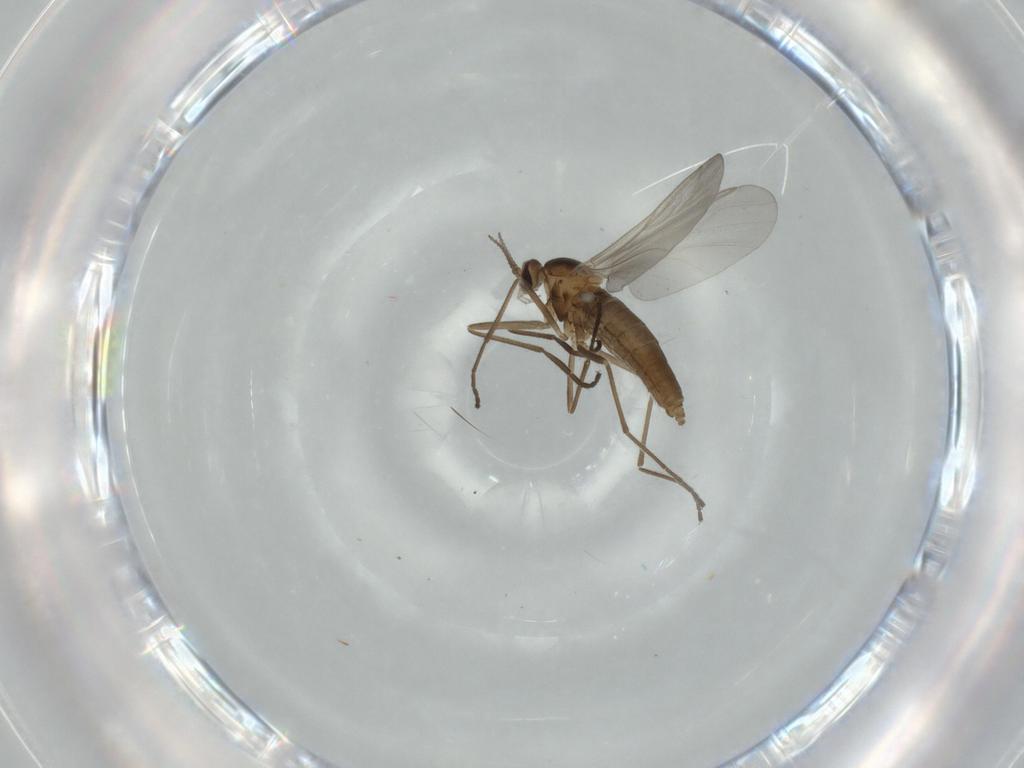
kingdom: Animalia
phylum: Arthropoda
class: Insecta
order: Diptera
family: Cecidomyiidae
